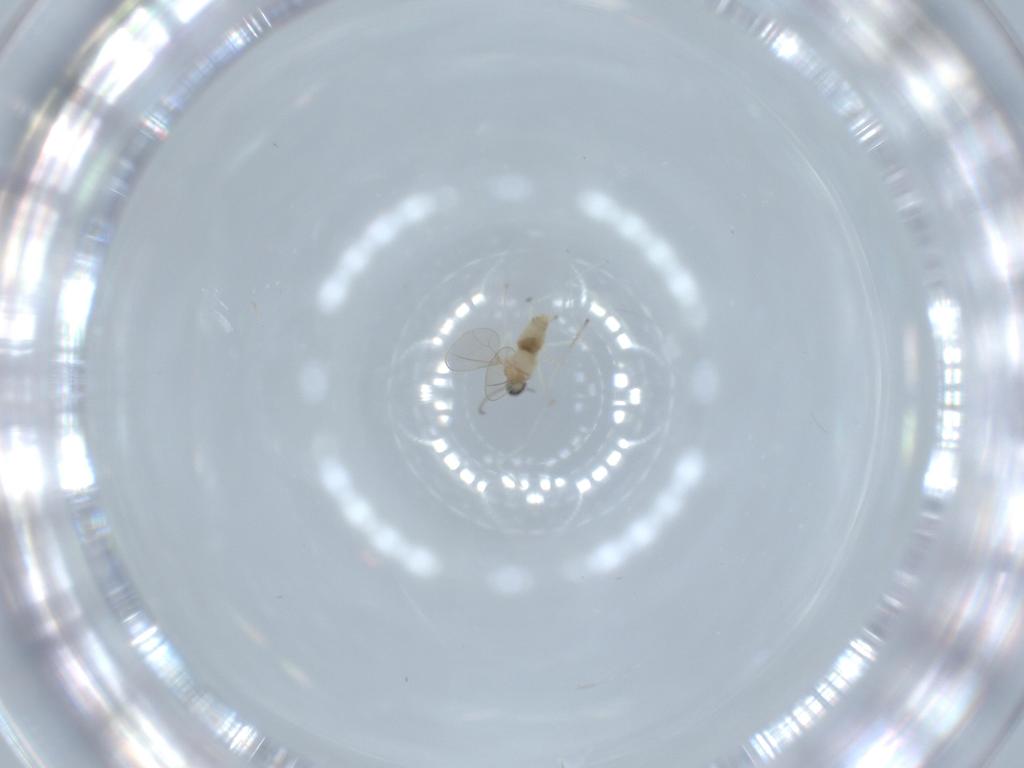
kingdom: Animalia
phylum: Arthropoda
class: Insecta
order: Diptera
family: Cecidomyiidae
